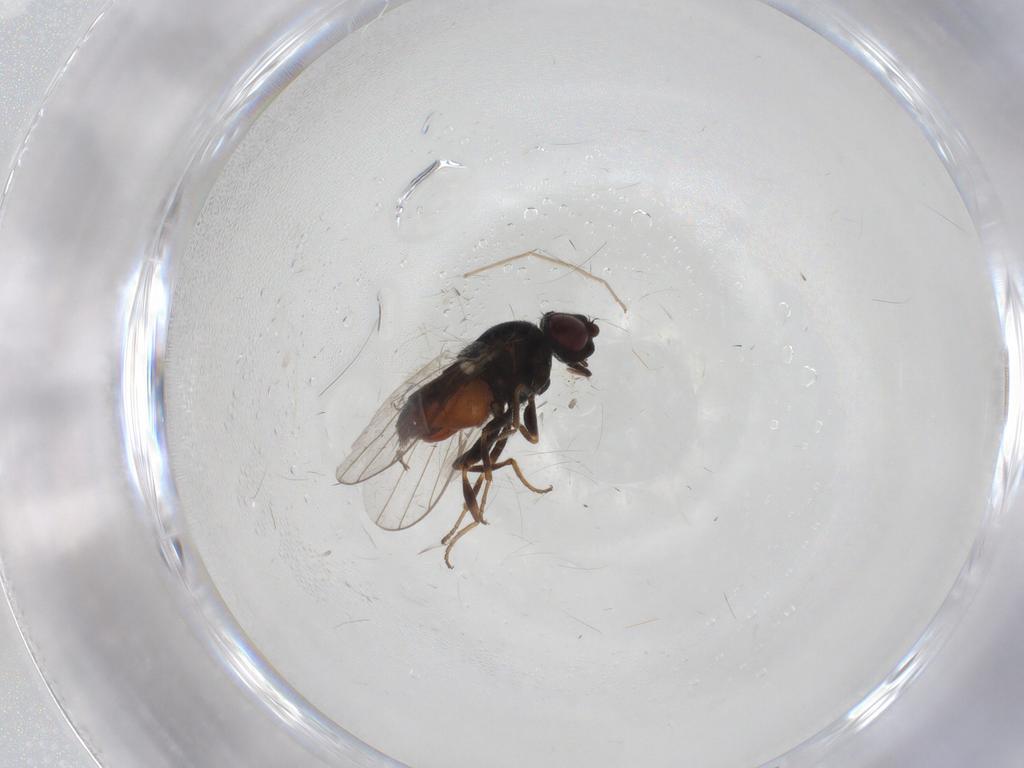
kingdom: Animalia
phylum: Arthropoda
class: Insecta
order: Diptera
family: Chloropidae
